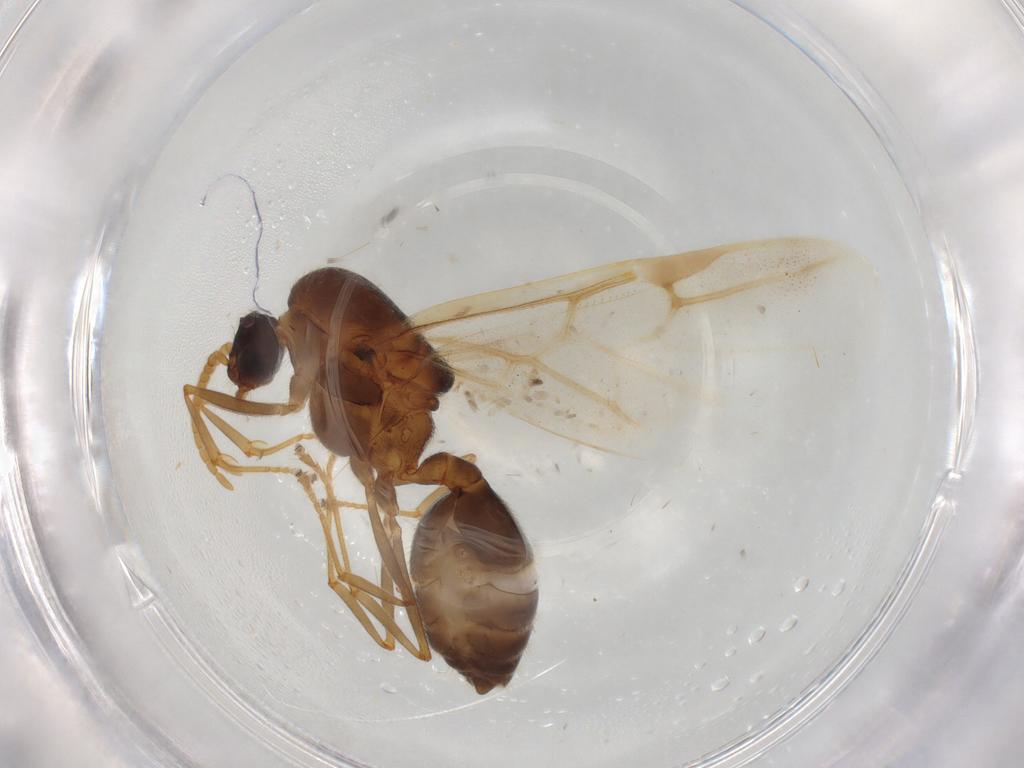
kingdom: Animalia
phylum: Arthropoda
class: Insecta
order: Hymenoptera
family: Formicidae
